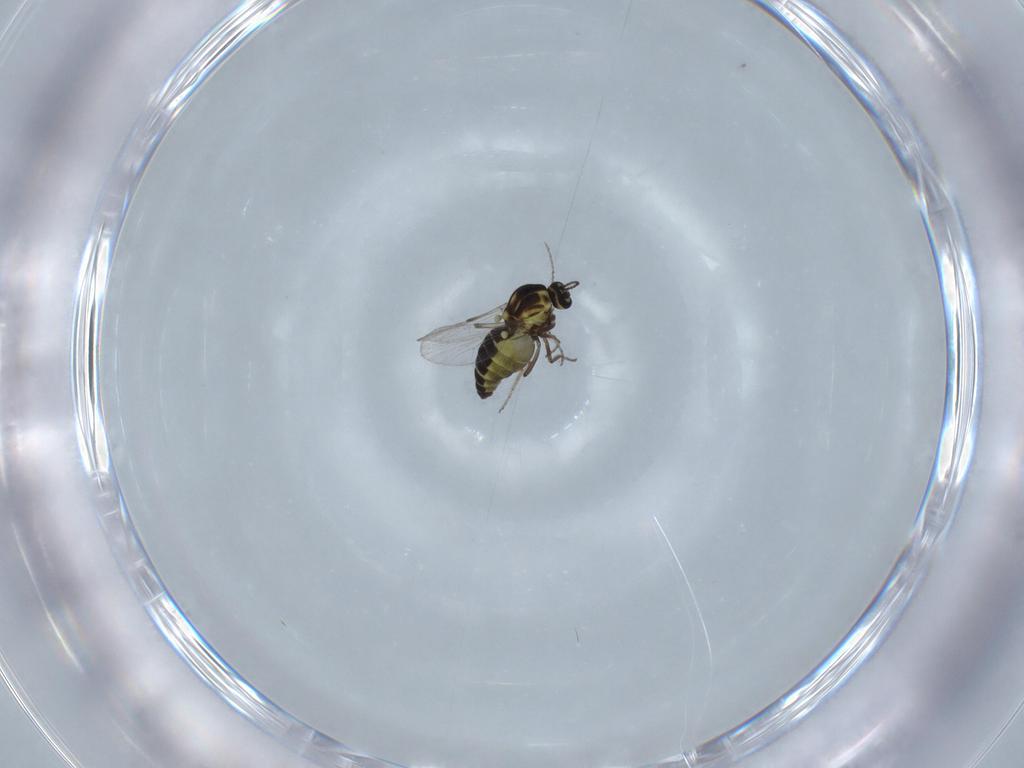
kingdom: Animalia
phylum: Arthropoda
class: Insecta
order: Diptera
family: Ceratopogonidae
